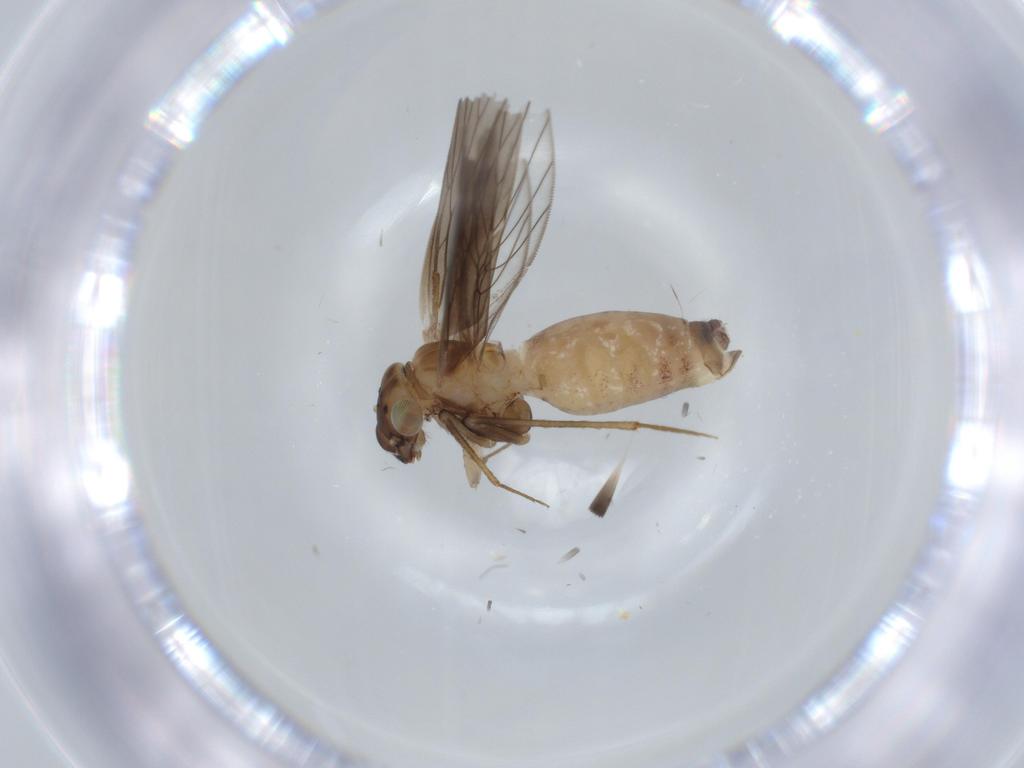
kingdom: Animalia
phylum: Arthropoda
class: Insecta
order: Psocodea
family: Lepidopsocidae
